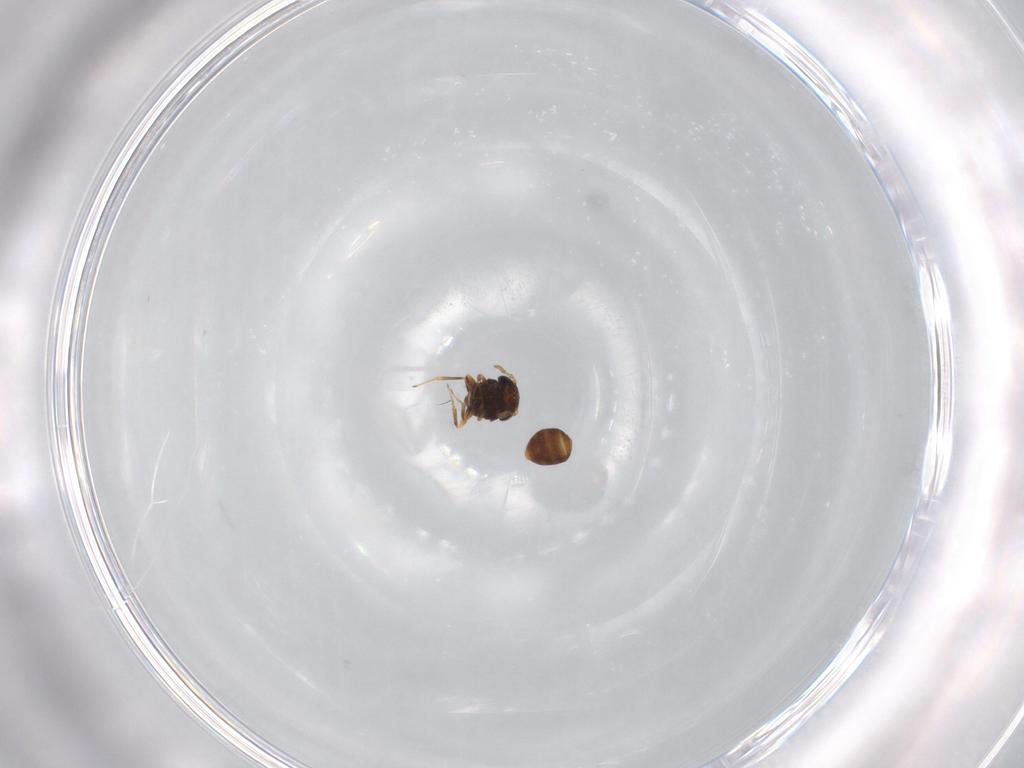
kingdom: Animalia
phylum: Arthropoda
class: Insecta
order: Hymenoptera
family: Scelionidae
